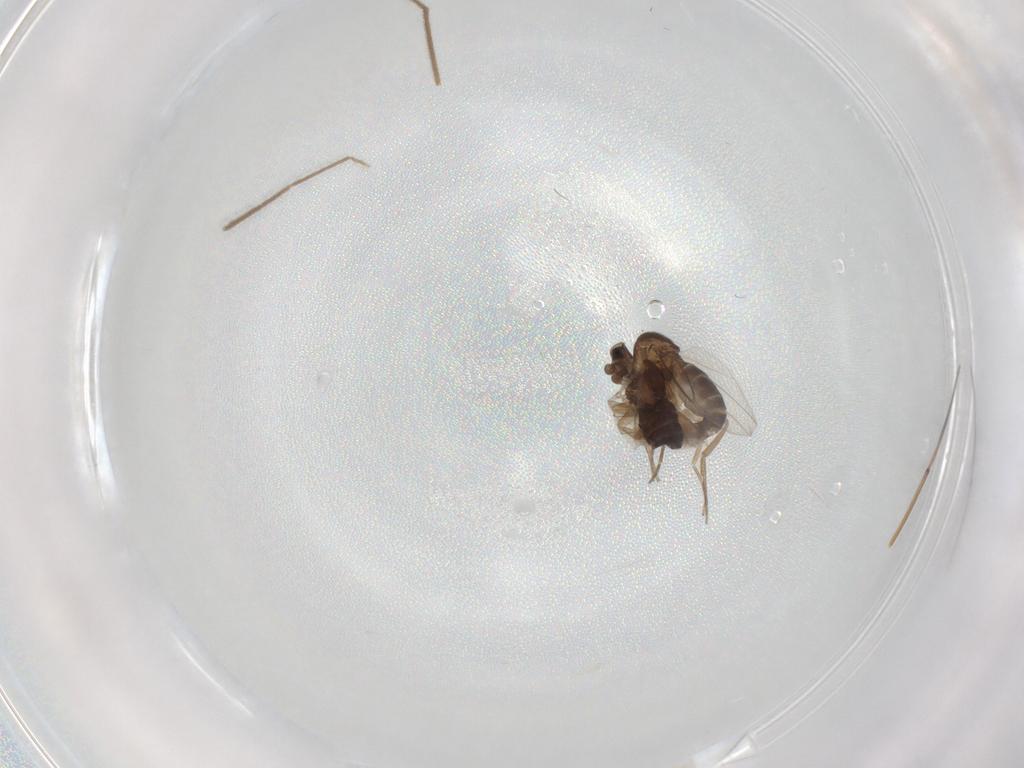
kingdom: Animalia
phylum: Arthropoda
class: Insecta
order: Diptera
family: Chironomidae
